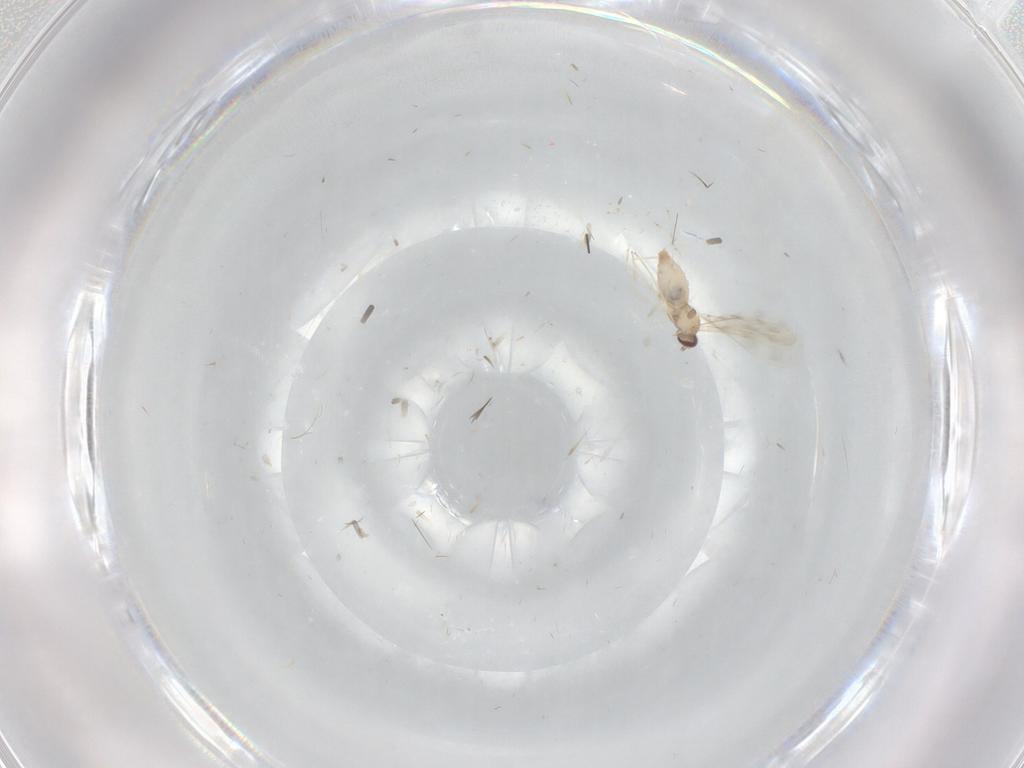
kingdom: Animalia
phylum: Arthropoda
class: Insecta
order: Diptera
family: Cecidomyiidae
